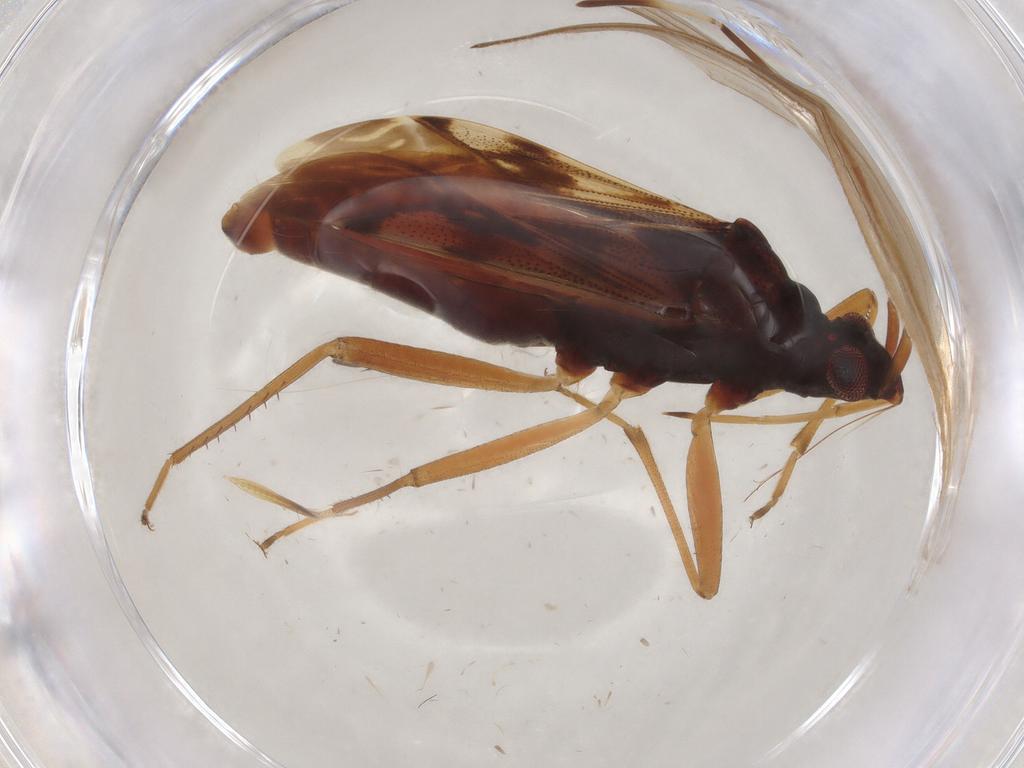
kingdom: Animalia
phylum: Arthropoda
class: Insecta
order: Hemiptera
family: Rhyparochromidae
